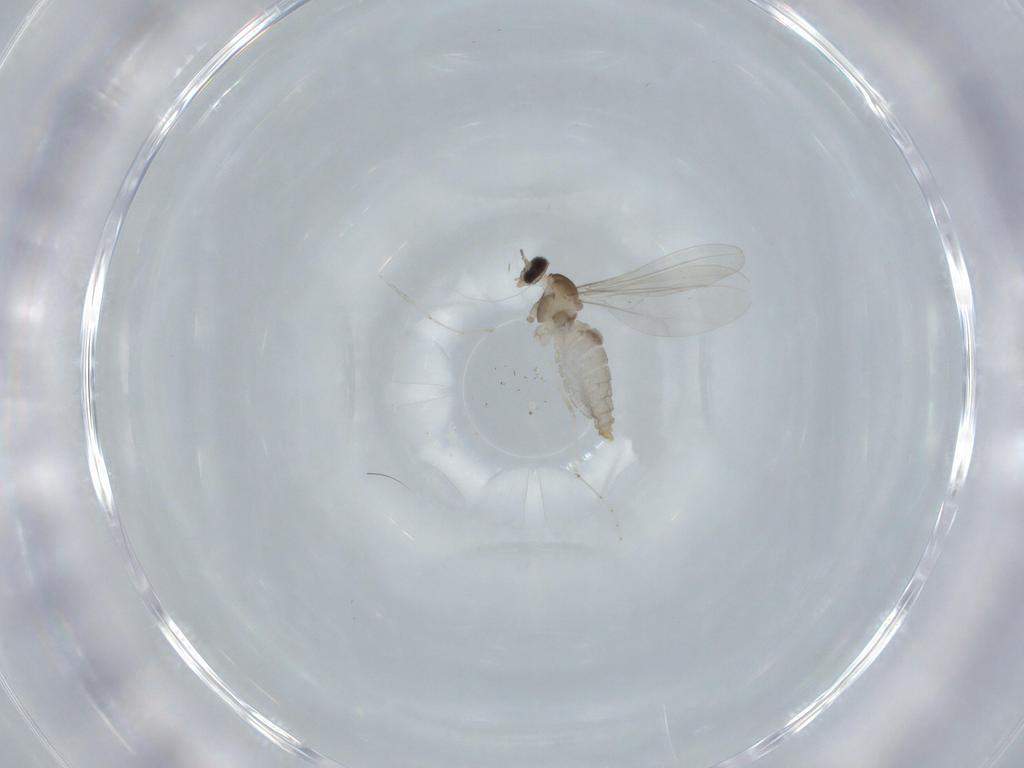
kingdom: Animalia
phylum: Arthropoda
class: Insecta
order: Diptera
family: Cecidomyiidae
